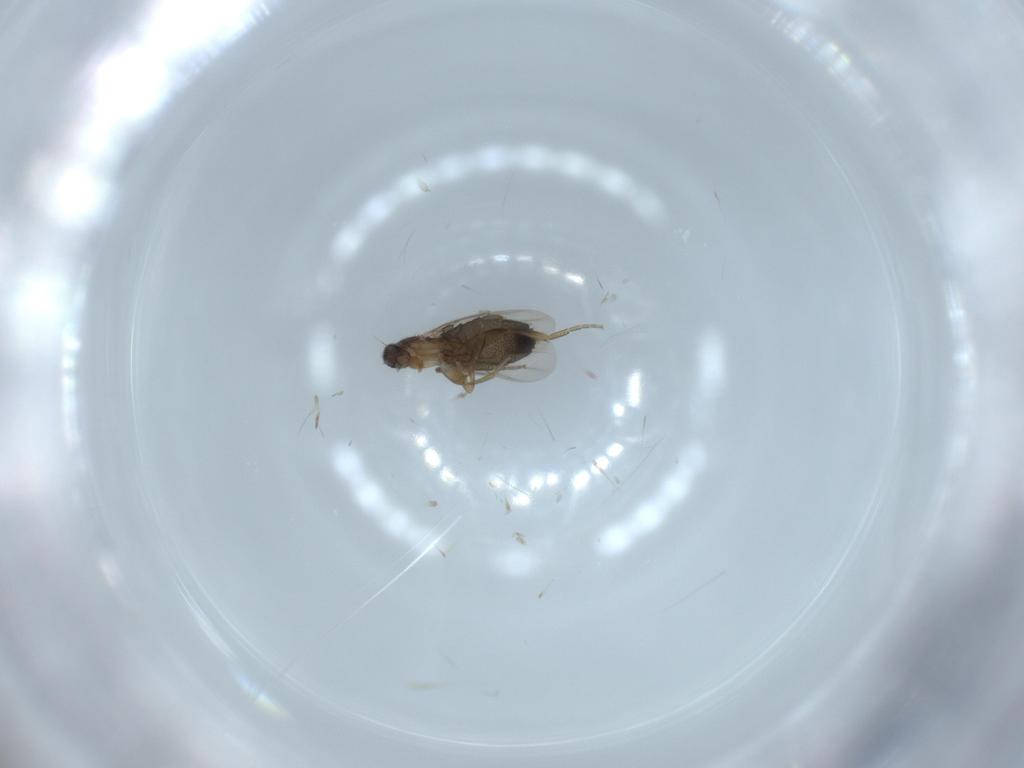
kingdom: Animalia
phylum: Arthropoda
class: Insecta
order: Diptera
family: Phoridae
